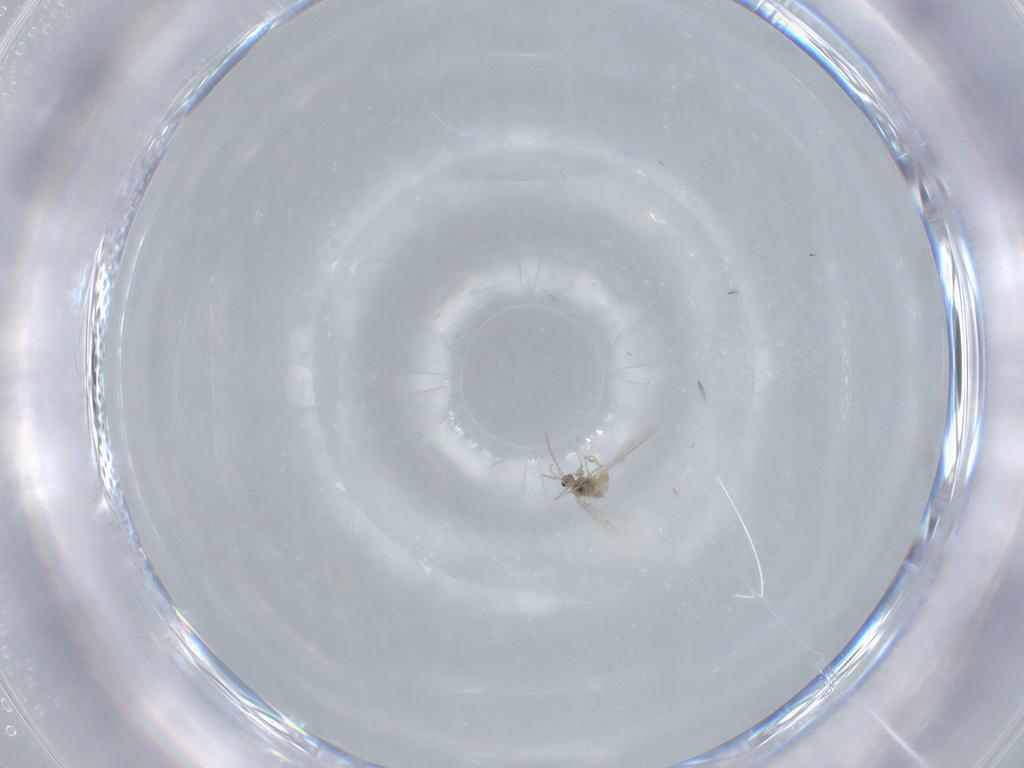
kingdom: Animalia
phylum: Arthropoda
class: Insecta
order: Diptera
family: Cecidomyiidae
